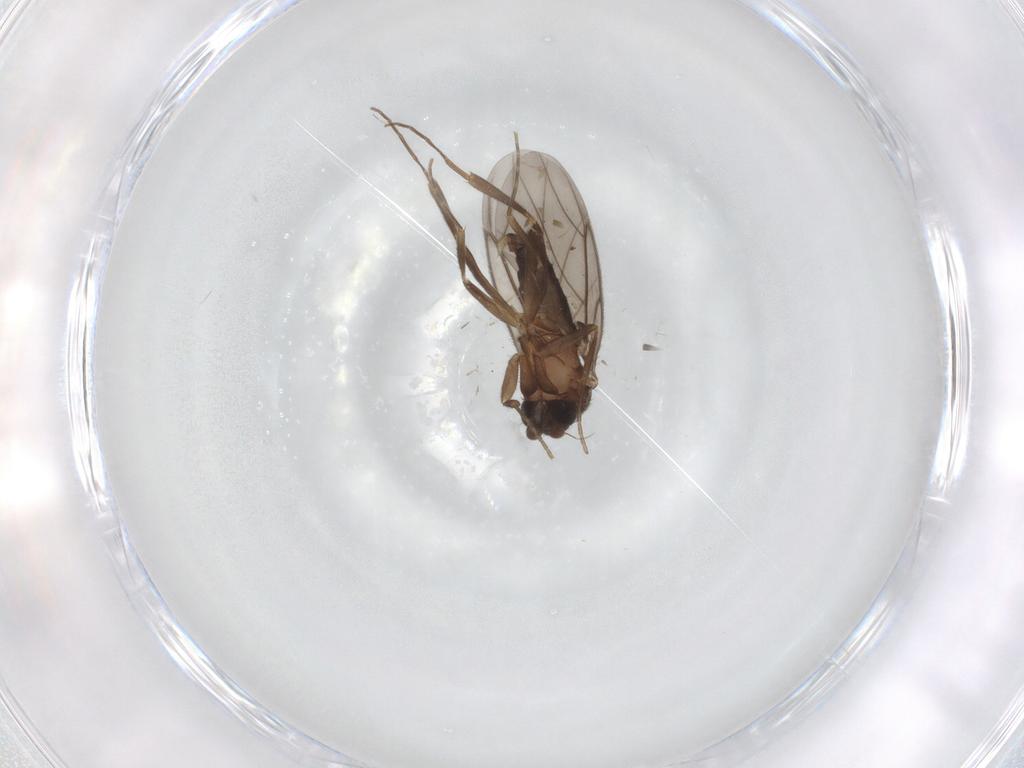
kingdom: Animalia
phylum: Arthropoda
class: Insecta
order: Diptera
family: Phoridae
